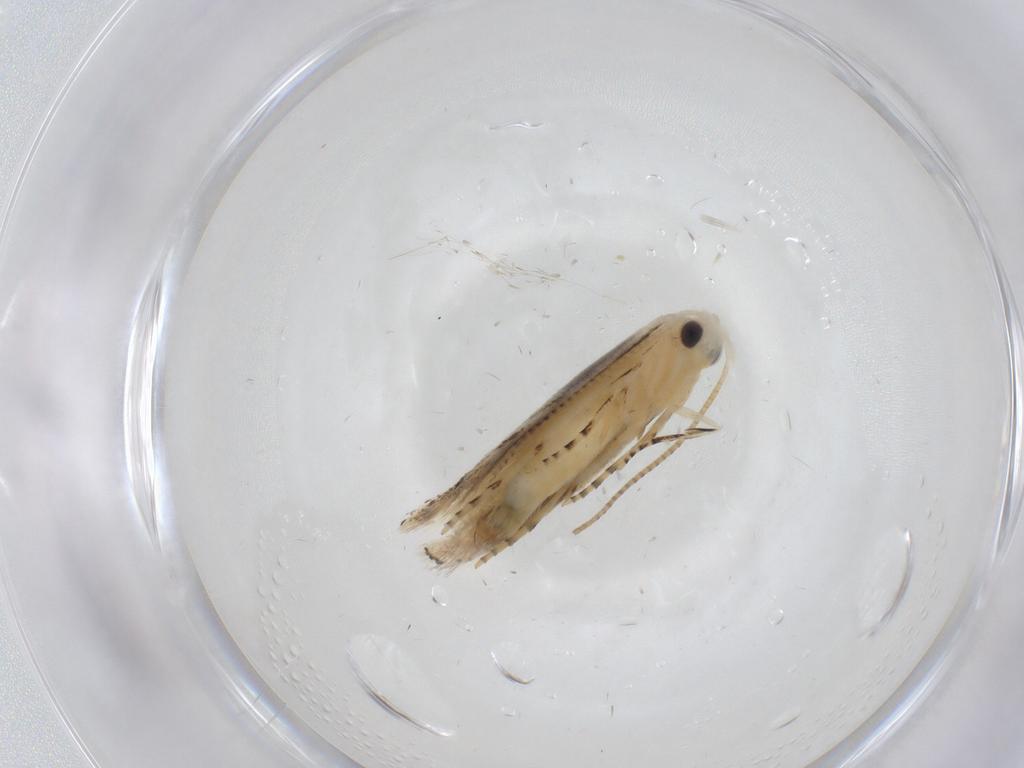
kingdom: Animalia
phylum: Arthropoda
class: Insecta
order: Lepidoptera
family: Bucculatricidae
